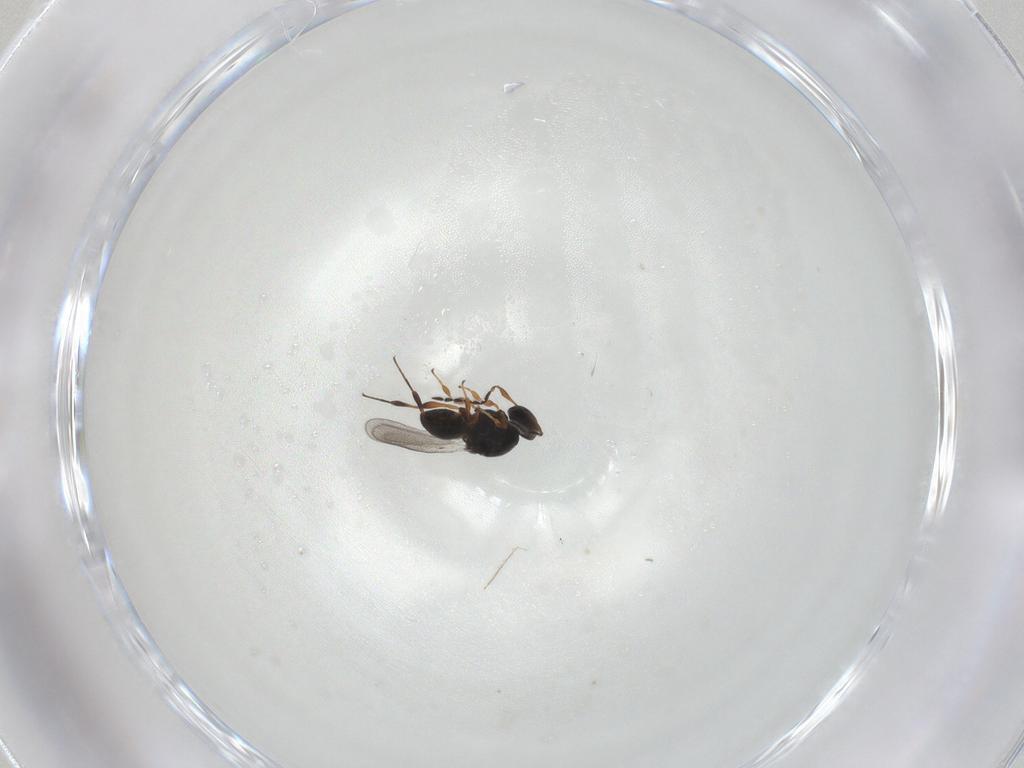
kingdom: Animalia
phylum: Arthropoda
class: Insecta
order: Hymenoptera
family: Platygastridae
